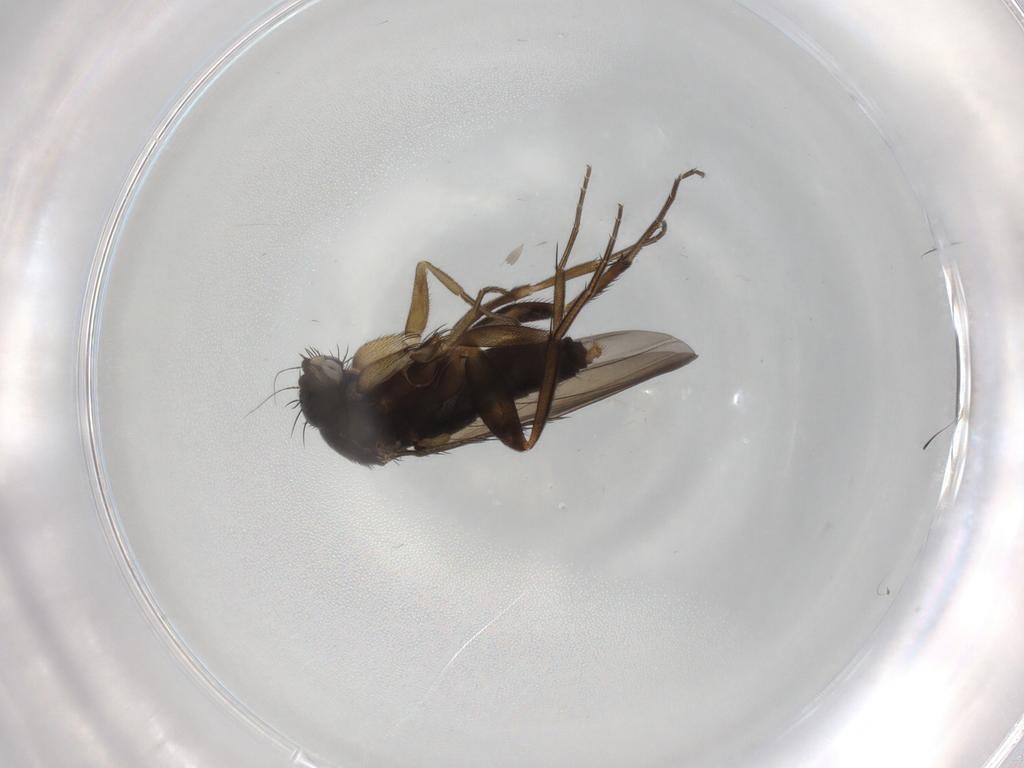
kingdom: Animalia
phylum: Arthropoda
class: Insecta
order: Diptera
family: Phoridae
